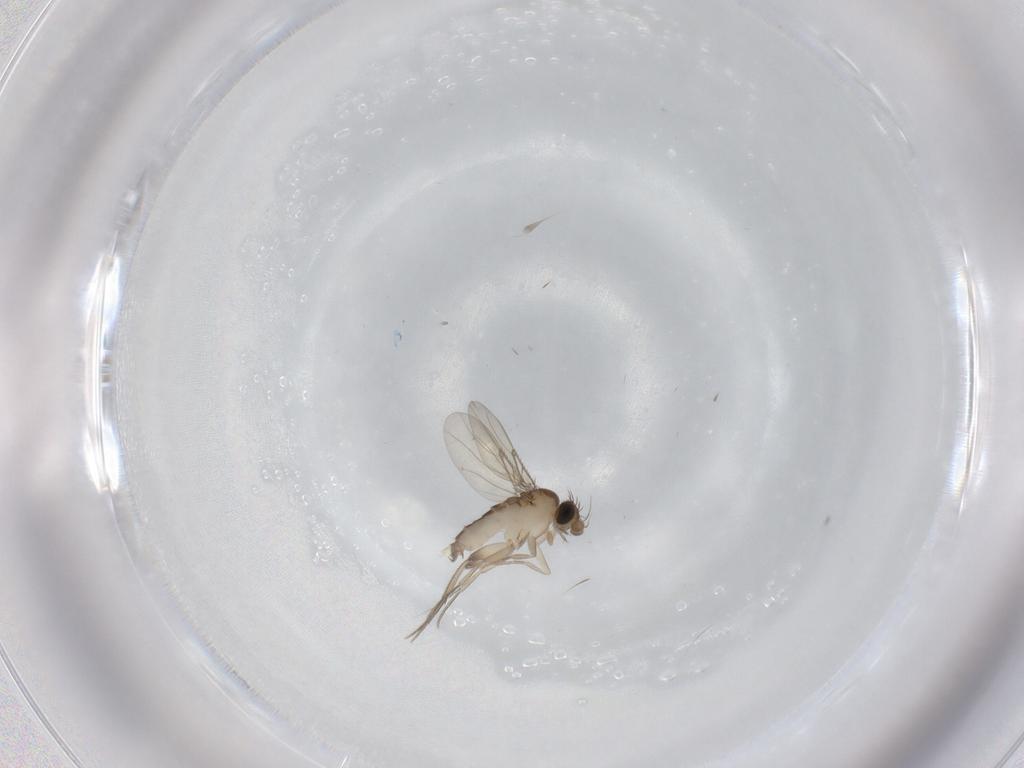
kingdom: Animalia
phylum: Arthropoda
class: Insecta
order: Diptera
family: Phoridae
